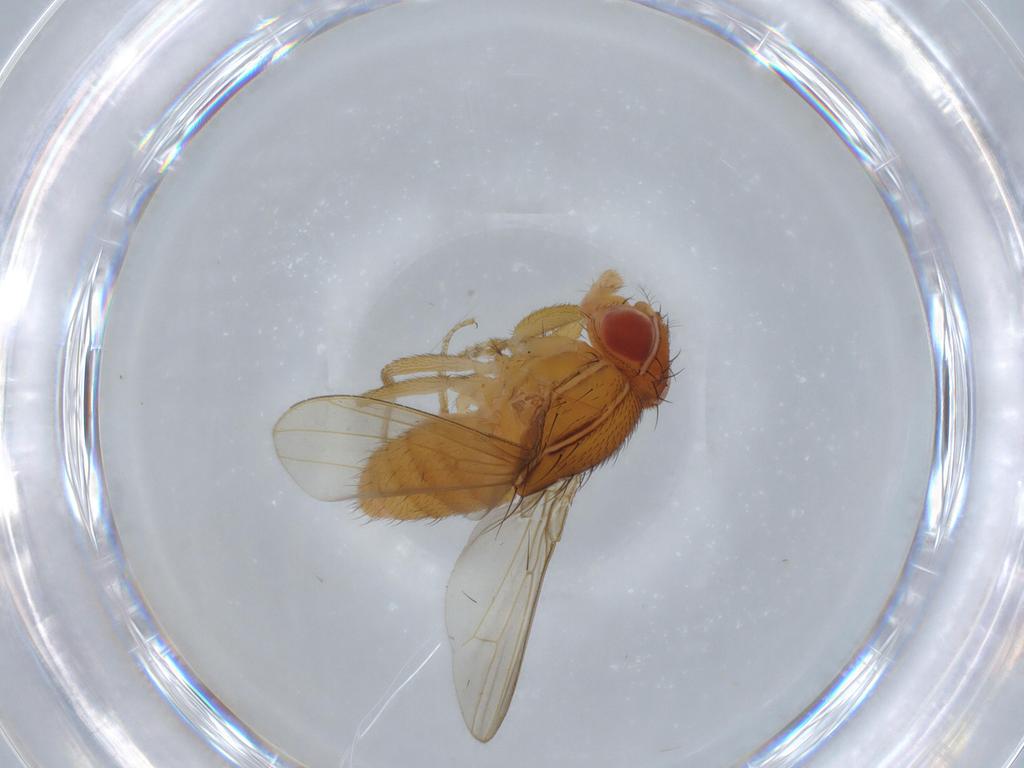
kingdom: Animalia
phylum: Arthropoda
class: Insecta
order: Diptera
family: Drosophilidae
